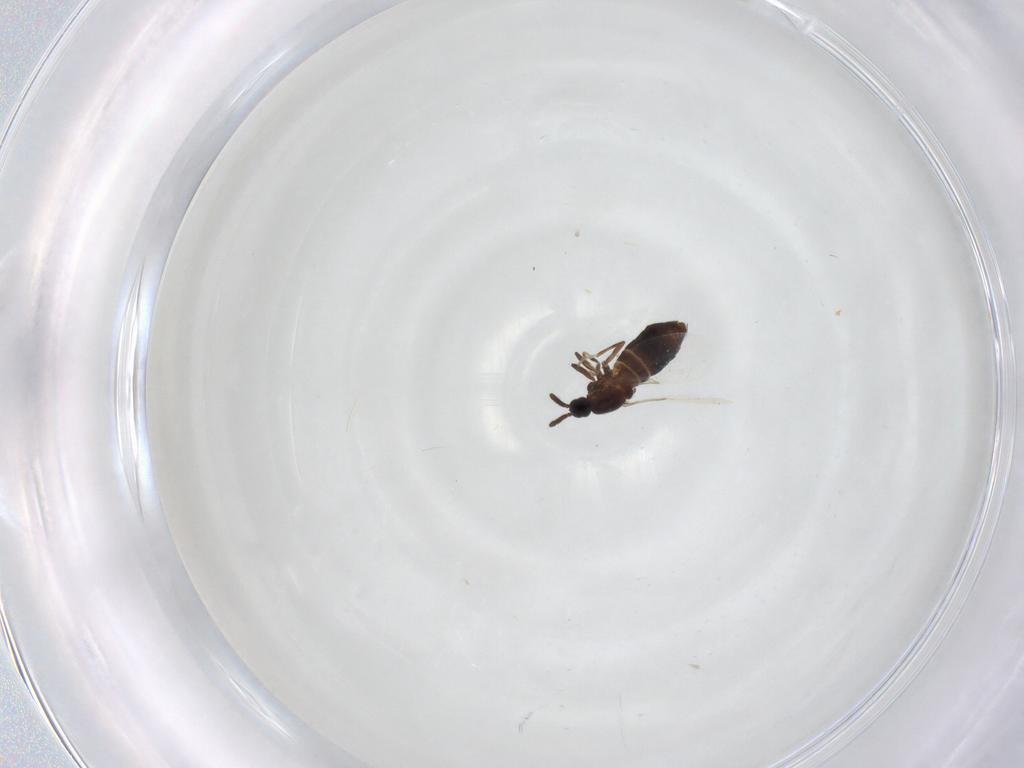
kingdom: Animalia
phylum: Arthropoda
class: Insecta
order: Diptera
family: Scatopsidae
